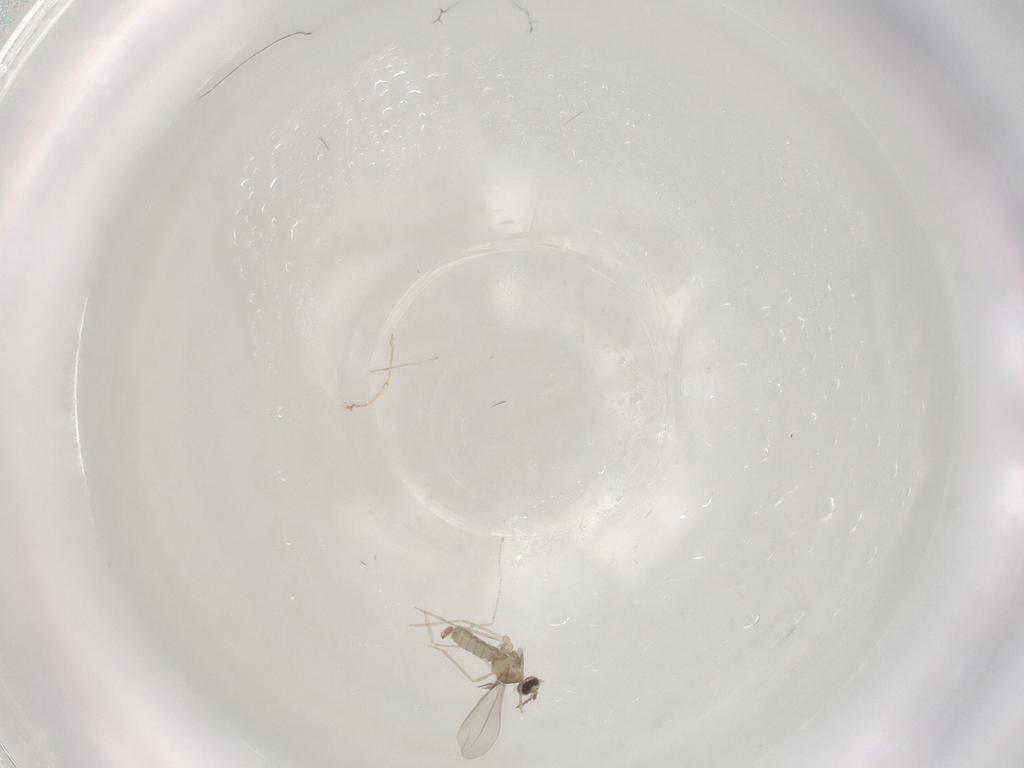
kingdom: Animalia
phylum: Arthropoda
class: Insecta
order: Diptera
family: Cecidomyiidae
